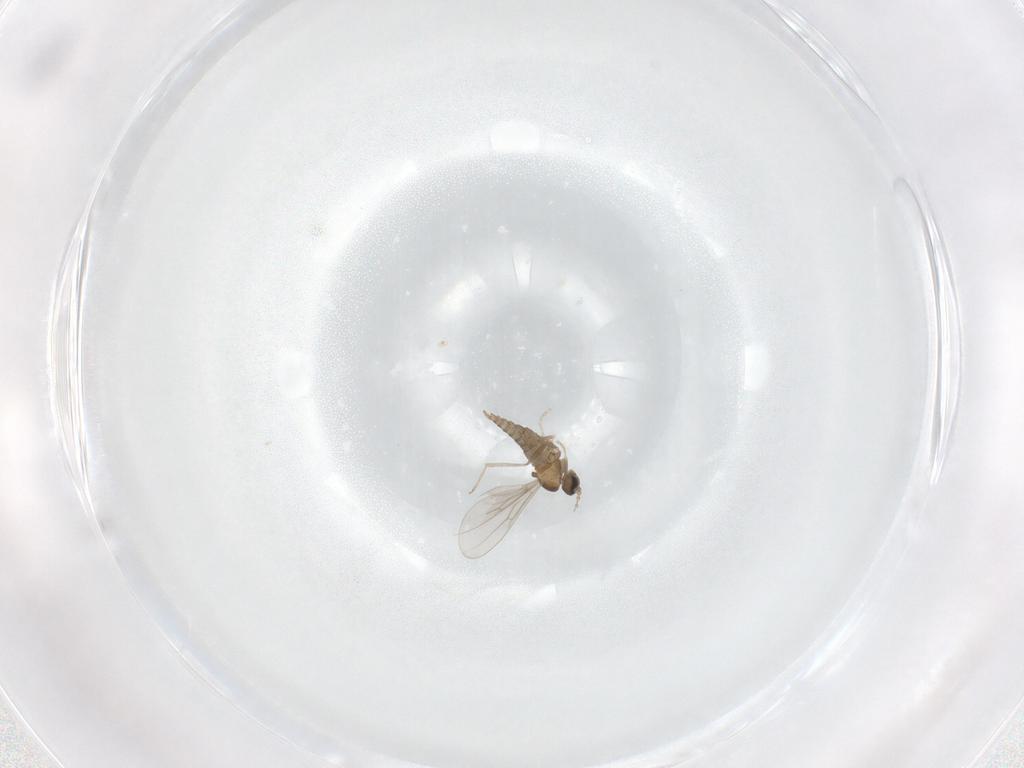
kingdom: Animalia
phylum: Arthropoda
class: Insecta
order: Diptera
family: Cecidomyiidae
